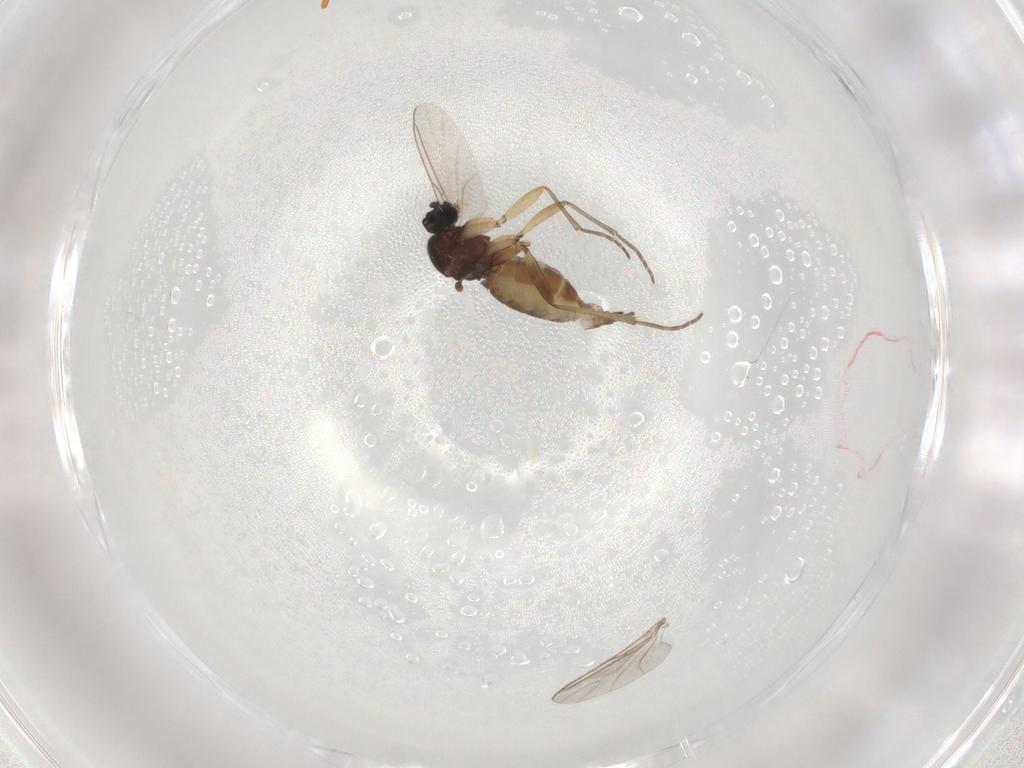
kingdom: Animalia
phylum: Arthropoda
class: Insecta
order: Diptera
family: Sciaridae
